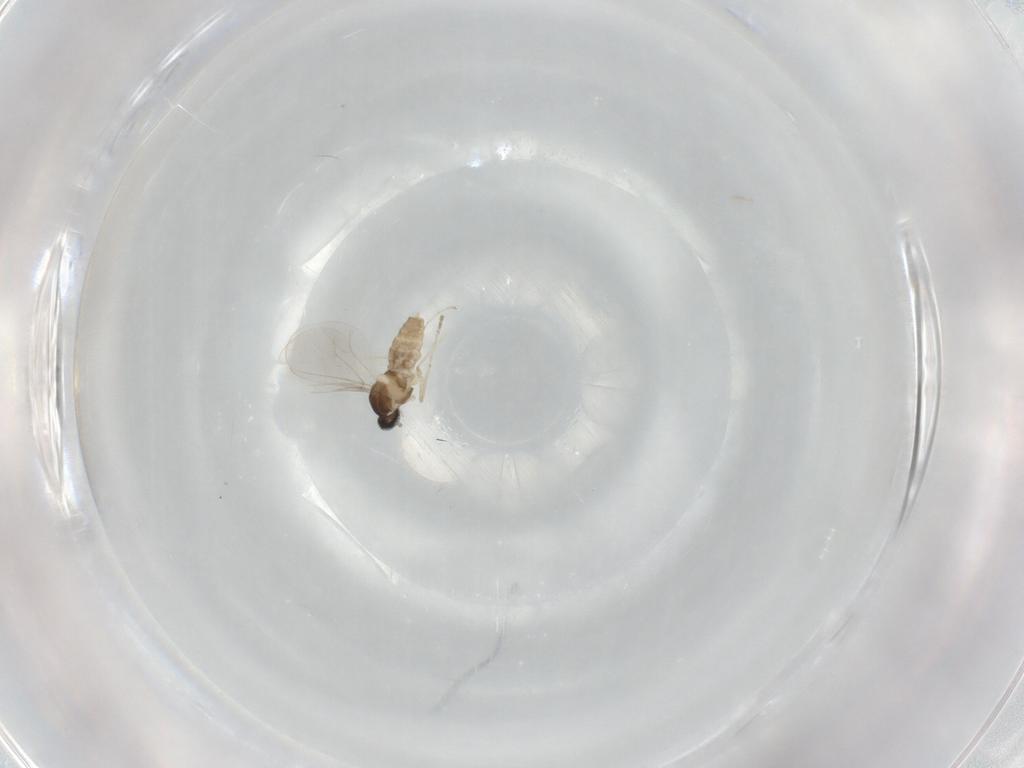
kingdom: Animalia
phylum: Arthropoda
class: Insecta
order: Diptera
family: Cecidomyiidae
